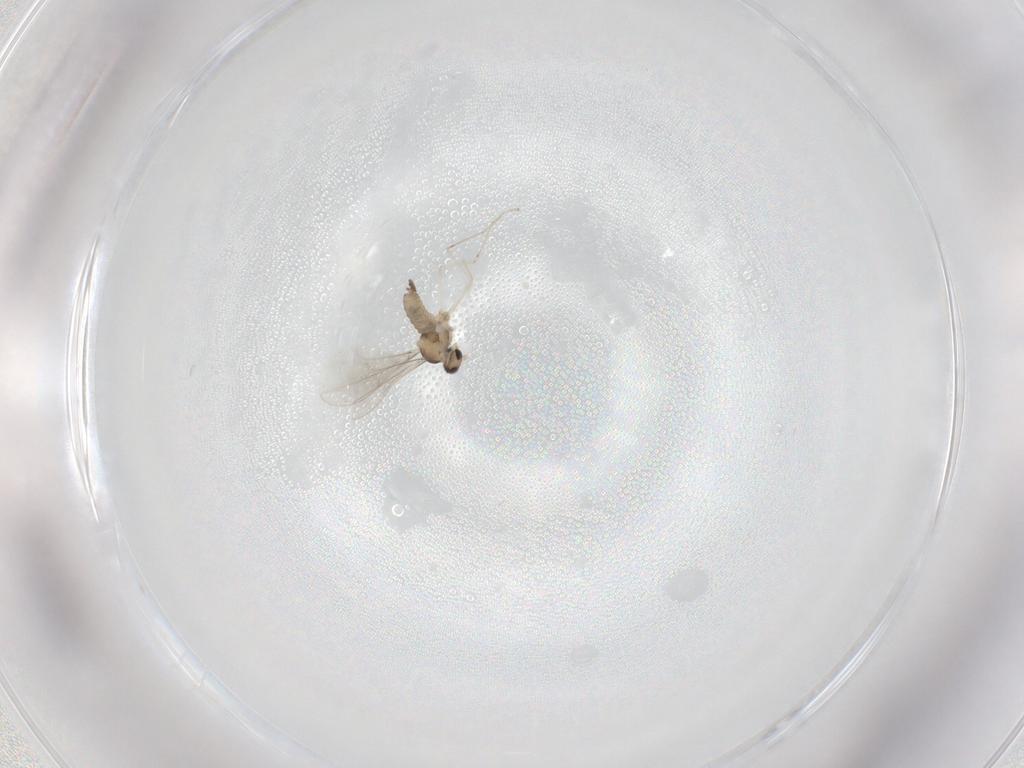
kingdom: Animalia
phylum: Arthropoda
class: Insecta
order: Diptera
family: Cecidomyiidae
